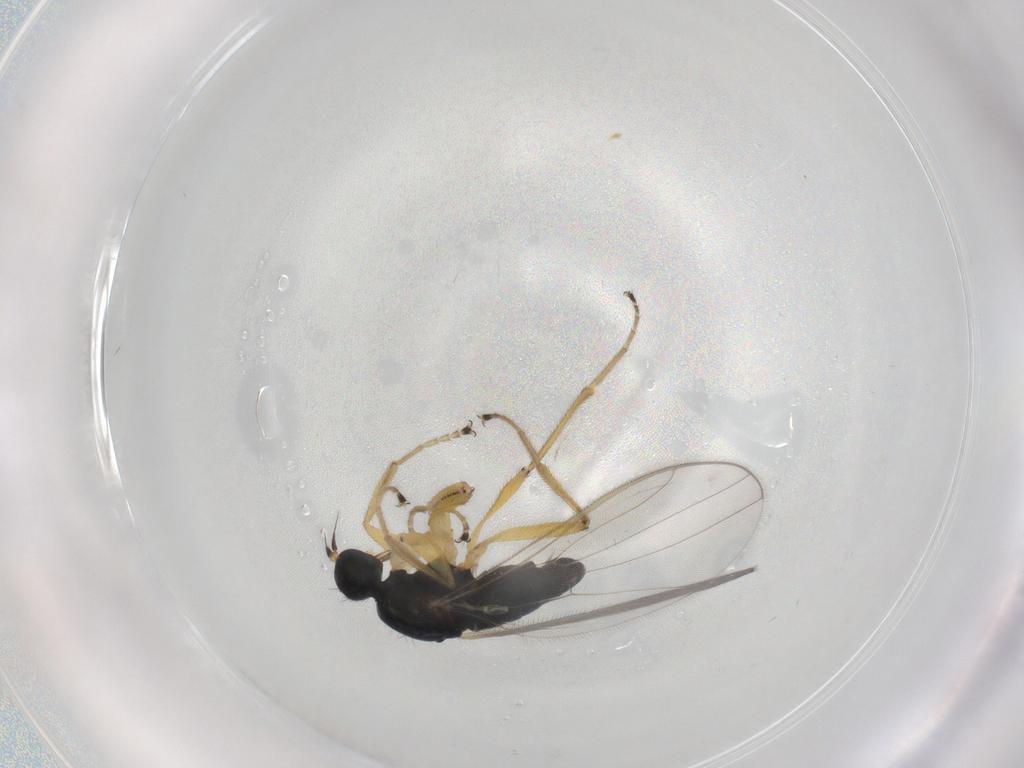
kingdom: Animalia
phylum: Arthropoda
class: Insecta
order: Diptera
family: Hybotidae
